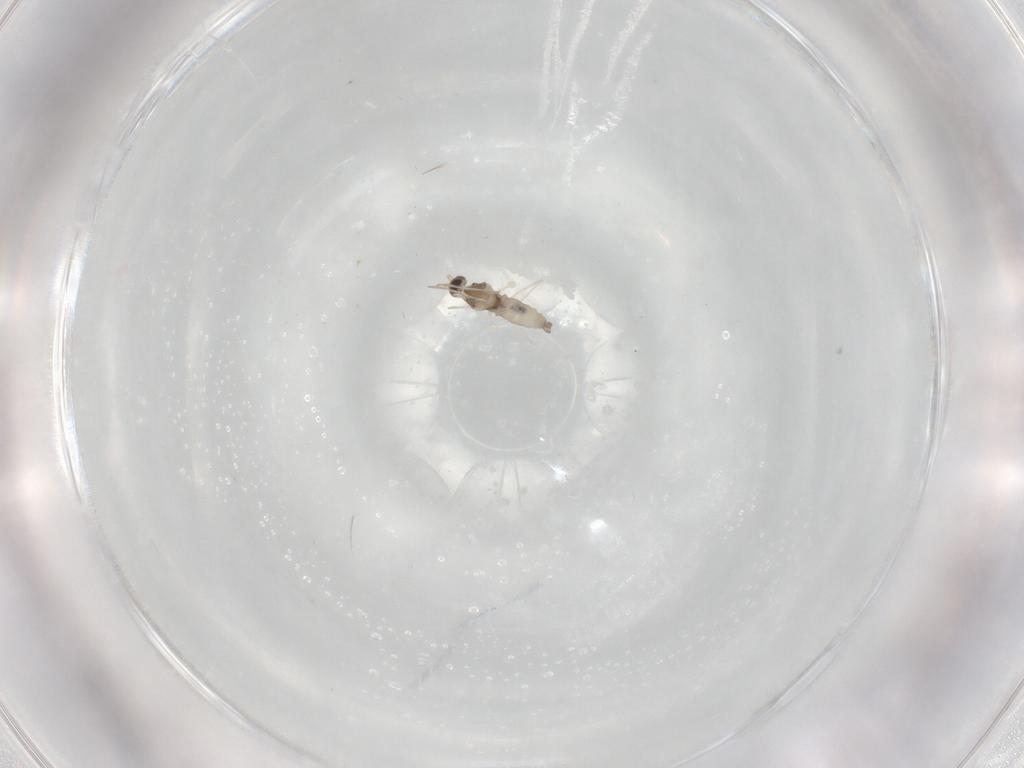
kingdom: Animalia
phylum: Arthropoda
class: Insecta
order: Diptera
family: Cecidomyiidae
